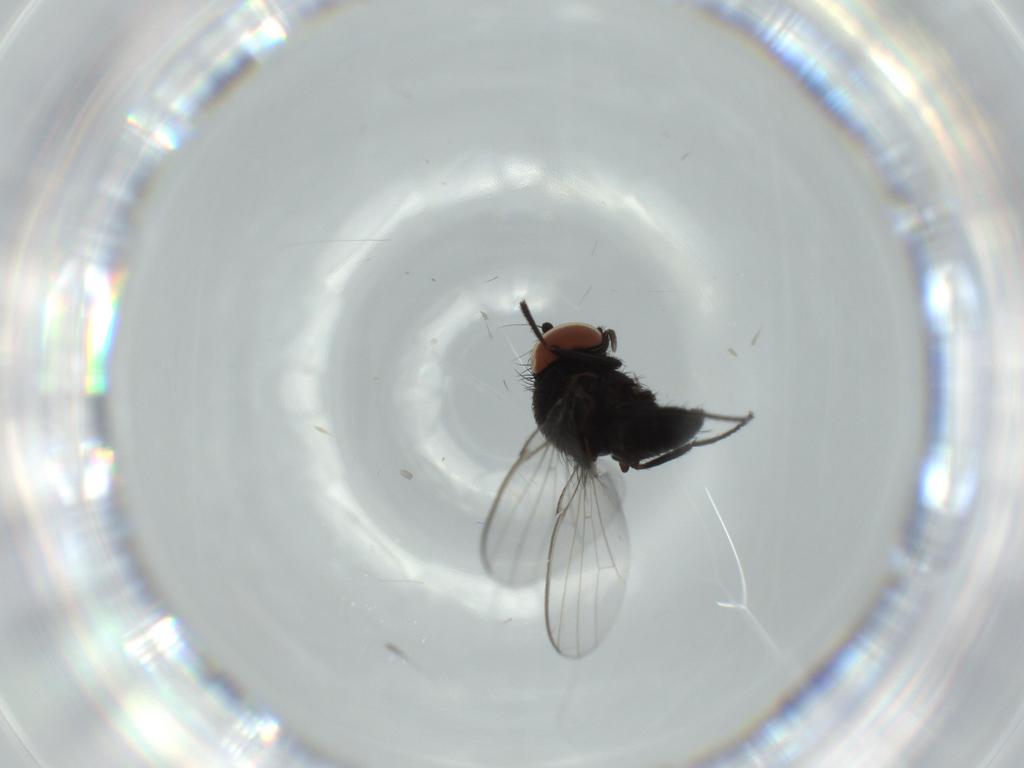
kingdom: Animalia
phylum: Arthropoda
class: Insecta
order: Diptera
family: Milichiidae
